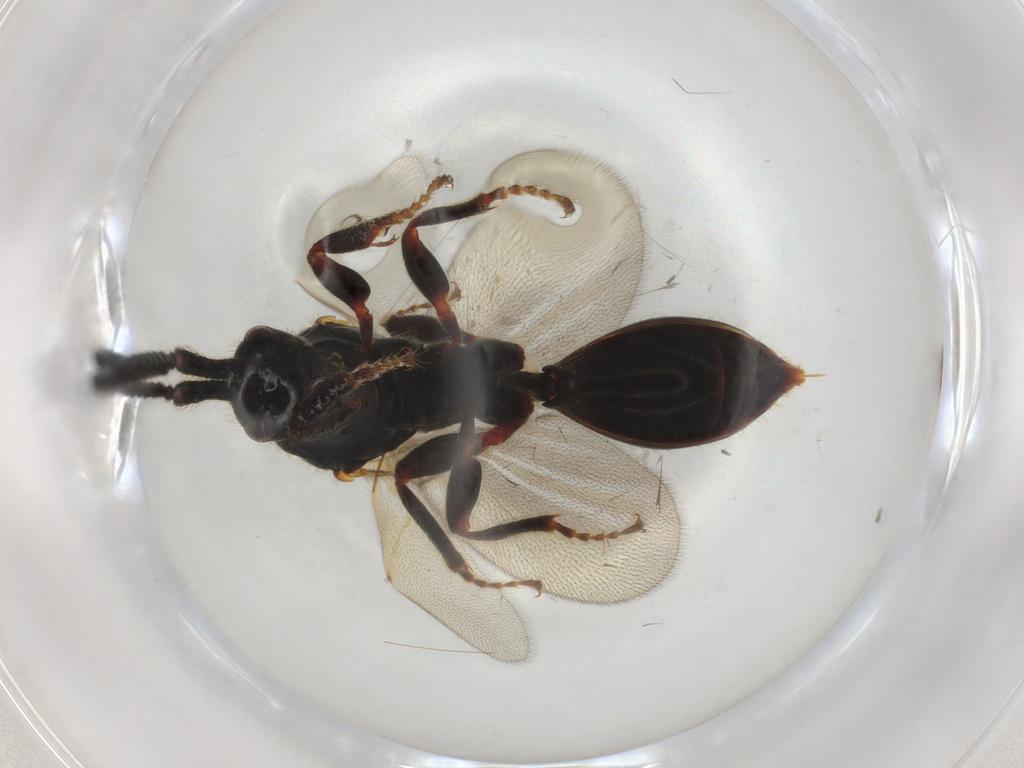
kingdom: Animalia
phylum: Arthropoda
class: Insecta
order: Hymenoptera
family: Diapriidae
